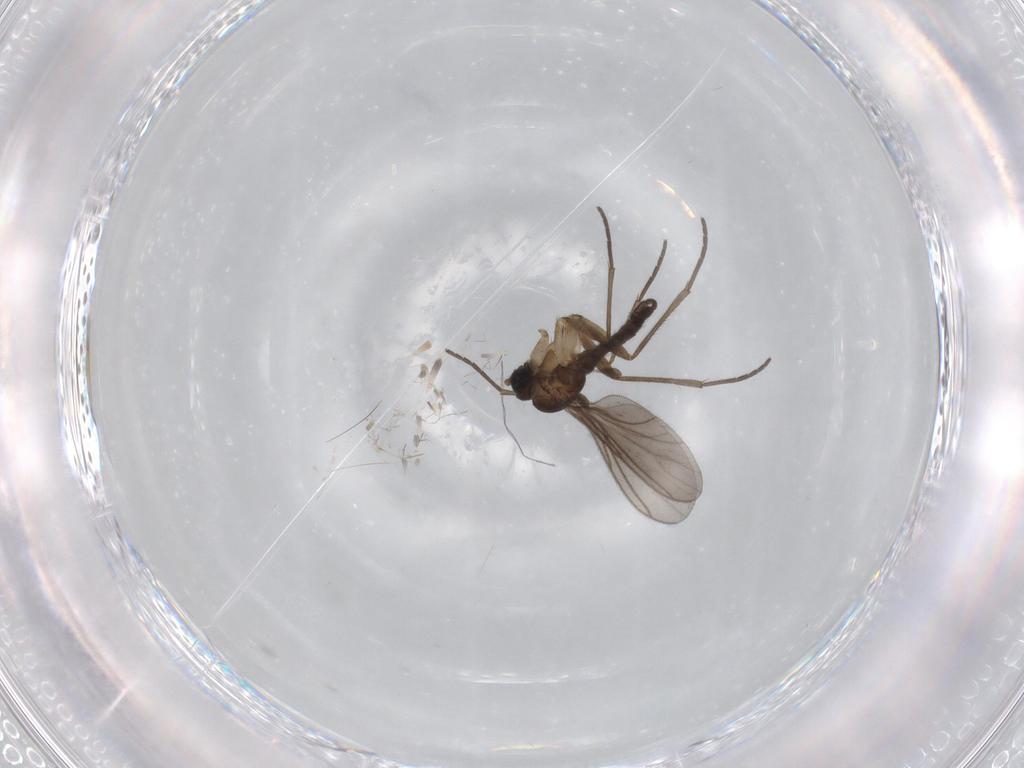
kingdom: Animalia
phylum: Arthropoda
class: Insecta
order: Diptera
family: Sciaridae
